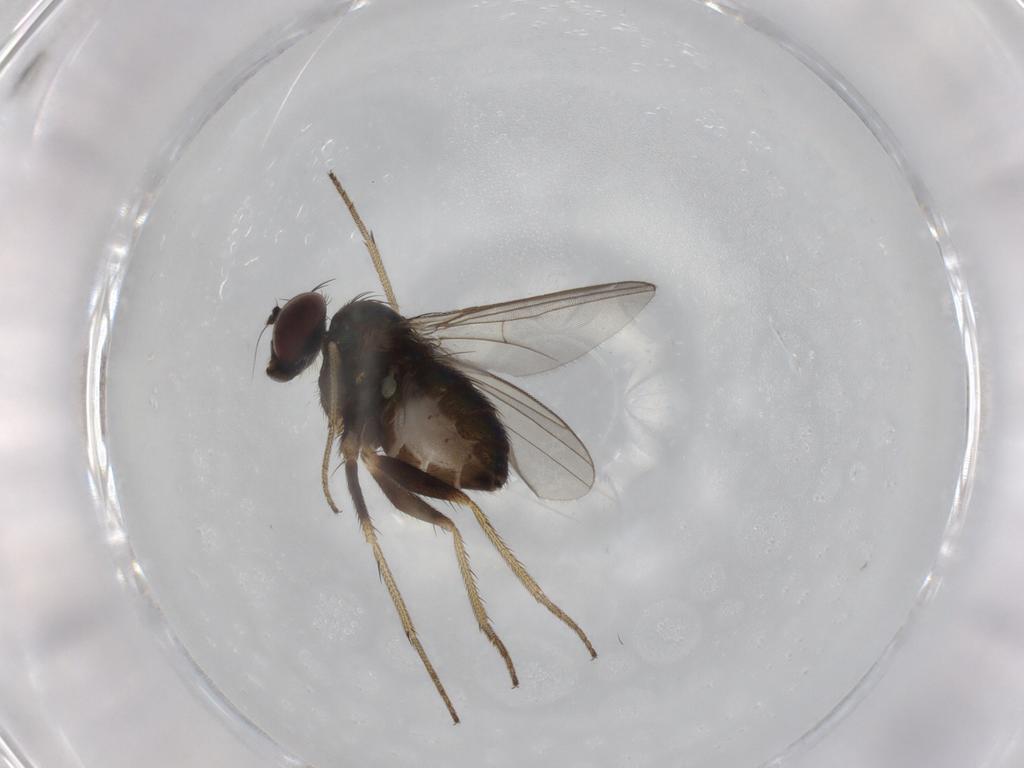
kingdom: Animalia
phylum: Arthropoda
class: Insecta
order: Diptera
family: Dolichopodidae
